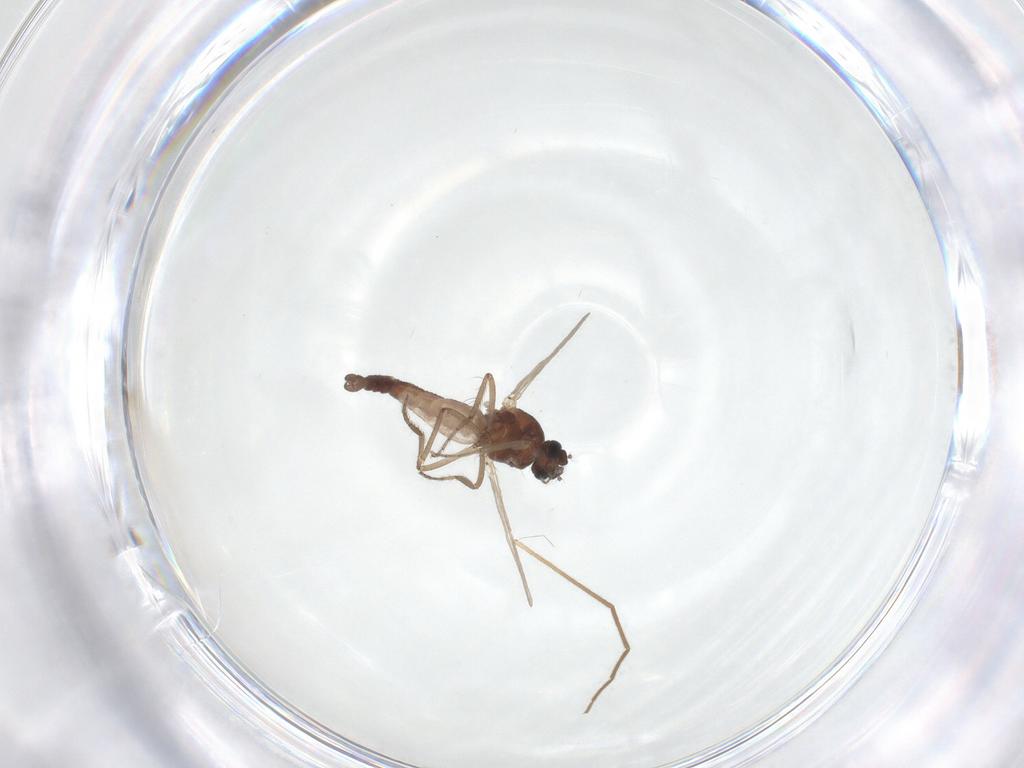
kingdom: Animalia
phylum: Arthropoda
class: Insecta
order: Diptera
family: Ceratopogonidae
